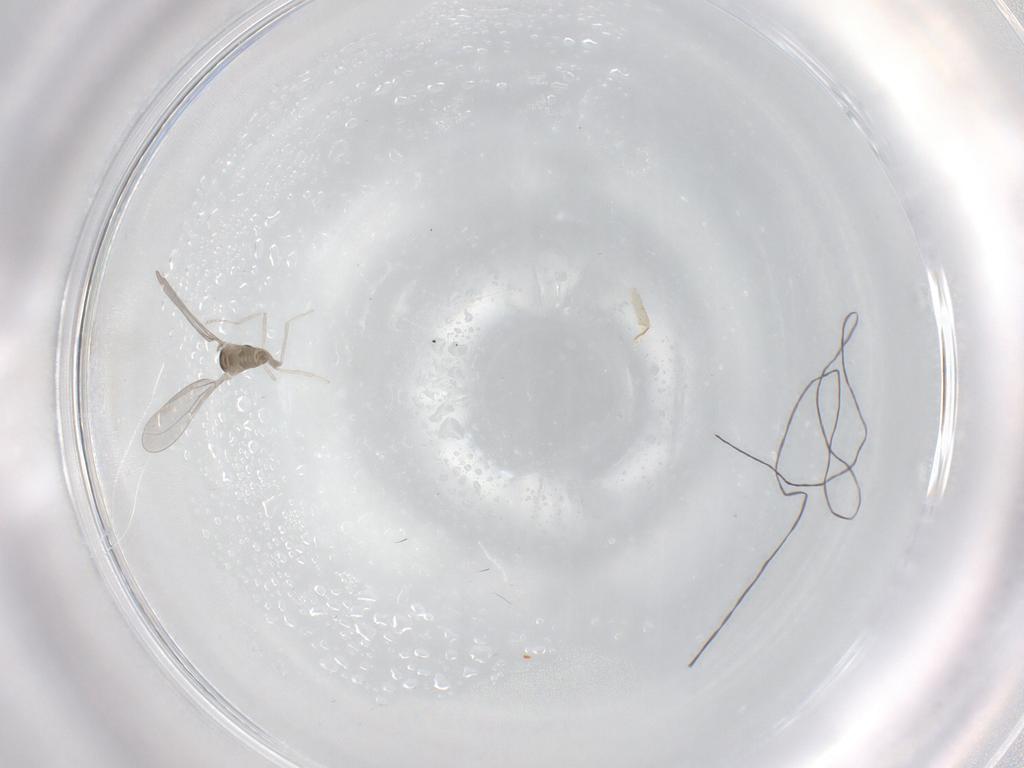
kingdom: Animalia
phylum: Arthropoda
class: Insecta
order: Diptera
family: Cecidomyiidae
